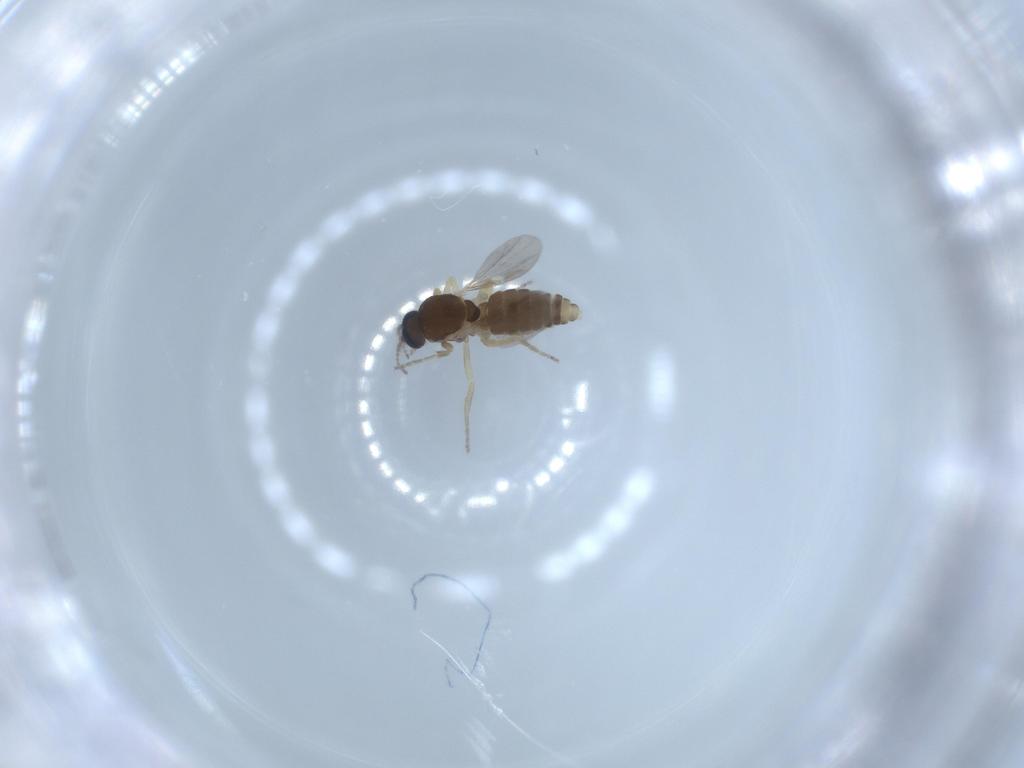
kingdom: Animalia
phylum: Arthropoda
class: Insecta
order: Diptera
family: Ceratopogonidae
